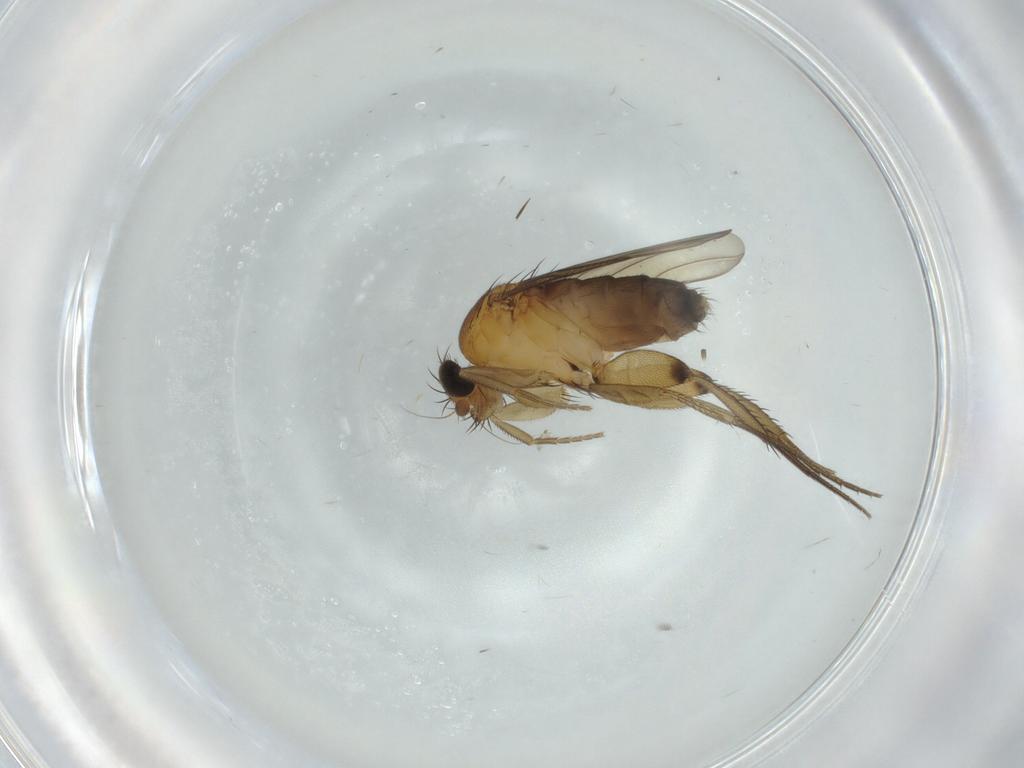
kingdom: Animalia
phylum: Arthropoda
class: Insecta
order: Diptera
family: Phoridae
